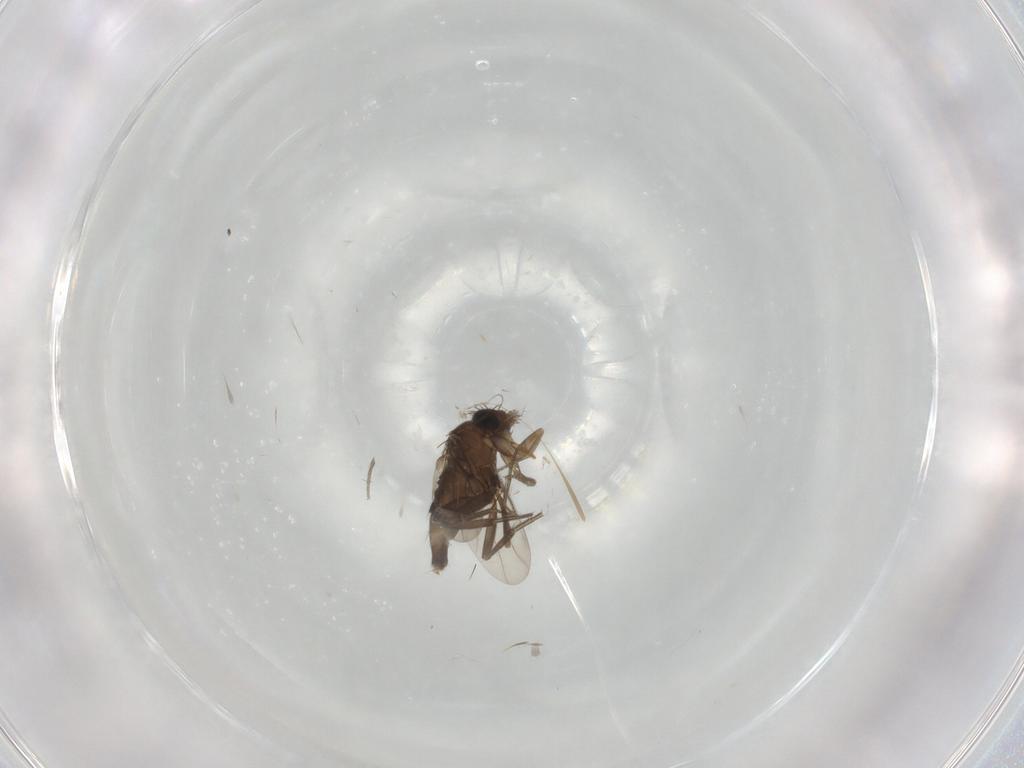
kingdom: Animalia
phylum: Arthropoda
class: Insecta
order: Diptera
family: Phoridae
